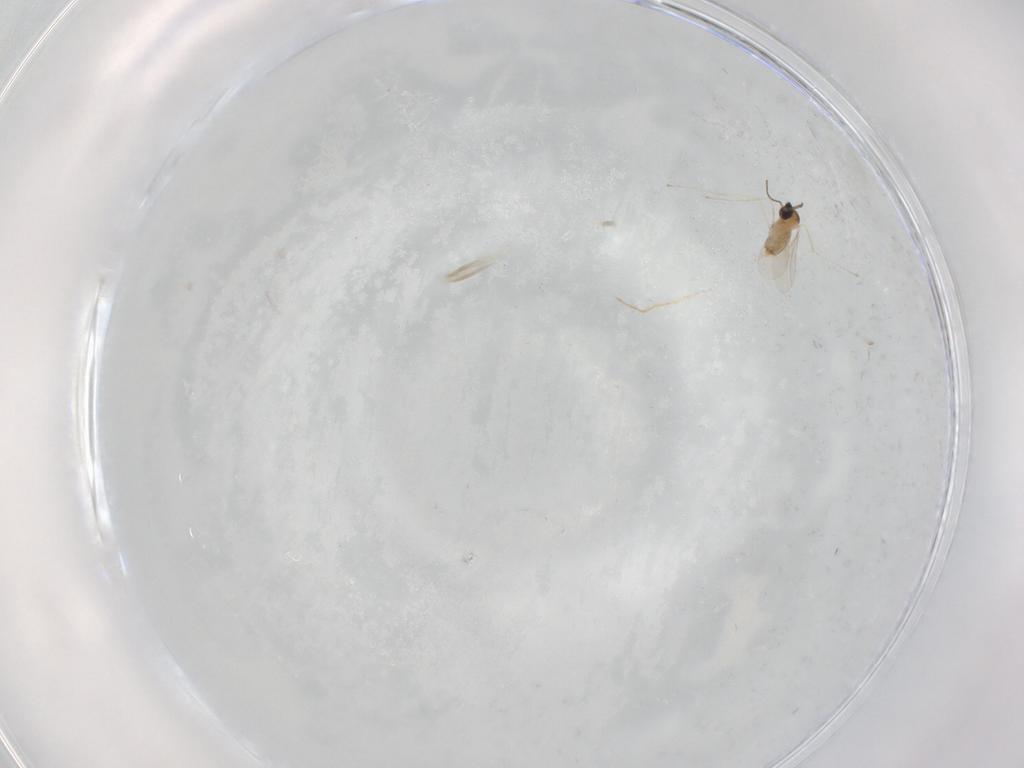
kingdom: Animalia
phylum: Arthropoda
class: Insecta
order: Diptera
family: Cecidomyiidae
